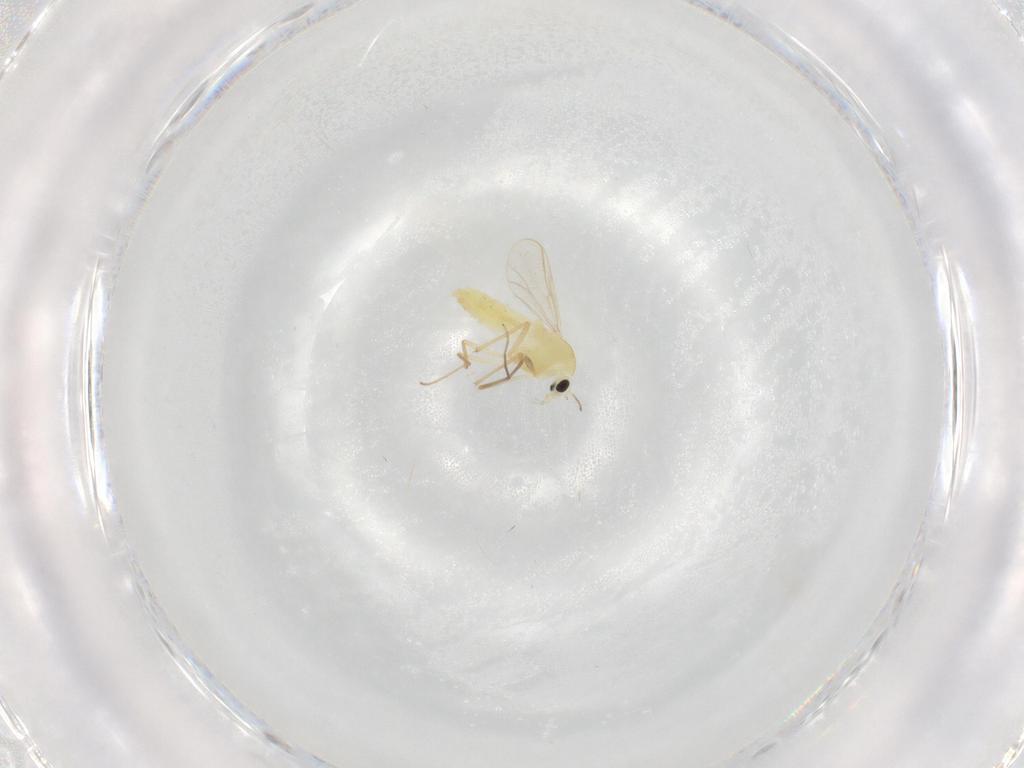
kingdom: Animalia
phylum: Arthropoda
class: Insecta
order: Diptera
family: Chironomidae
